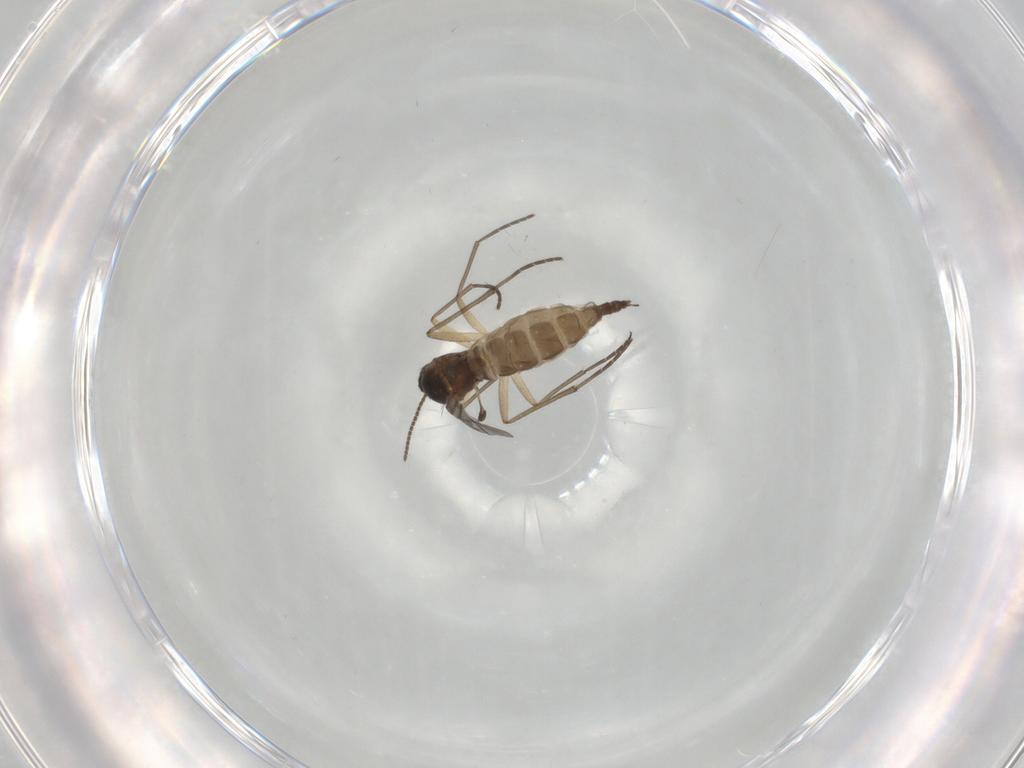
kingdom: Animalia
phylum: Arthropoda
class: Insecta
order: Diptera
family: Sciaridae
